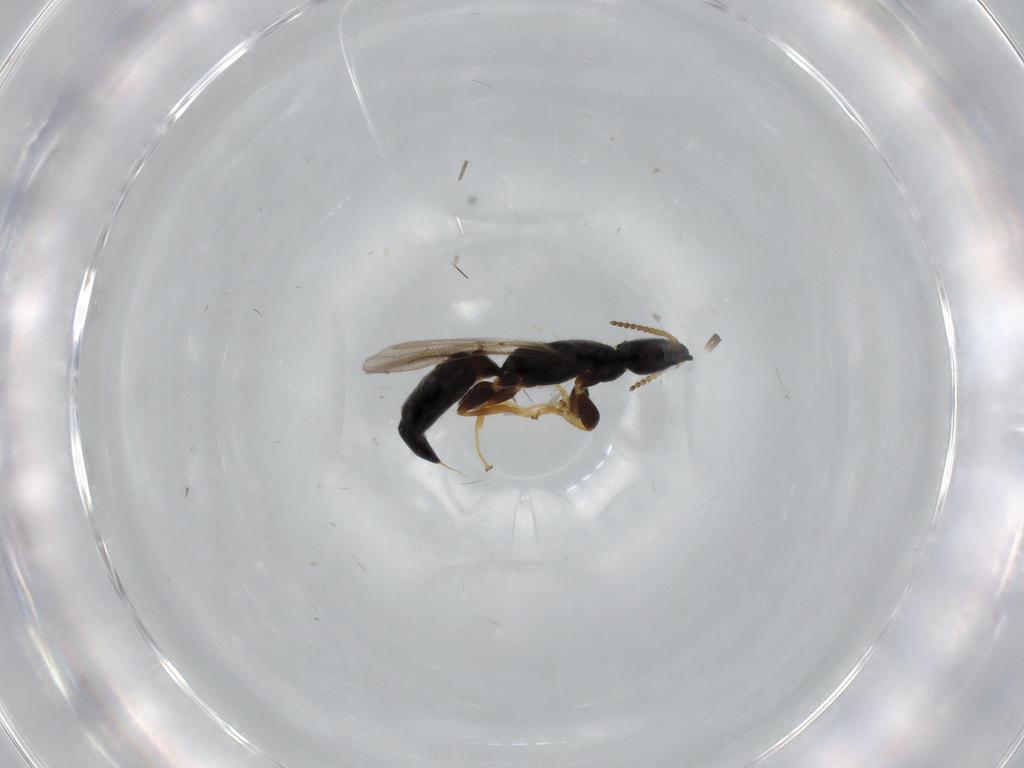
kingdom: Animalia
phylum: Arthropoda
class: Insecta
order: Hymenoptera
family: Bethylidae
